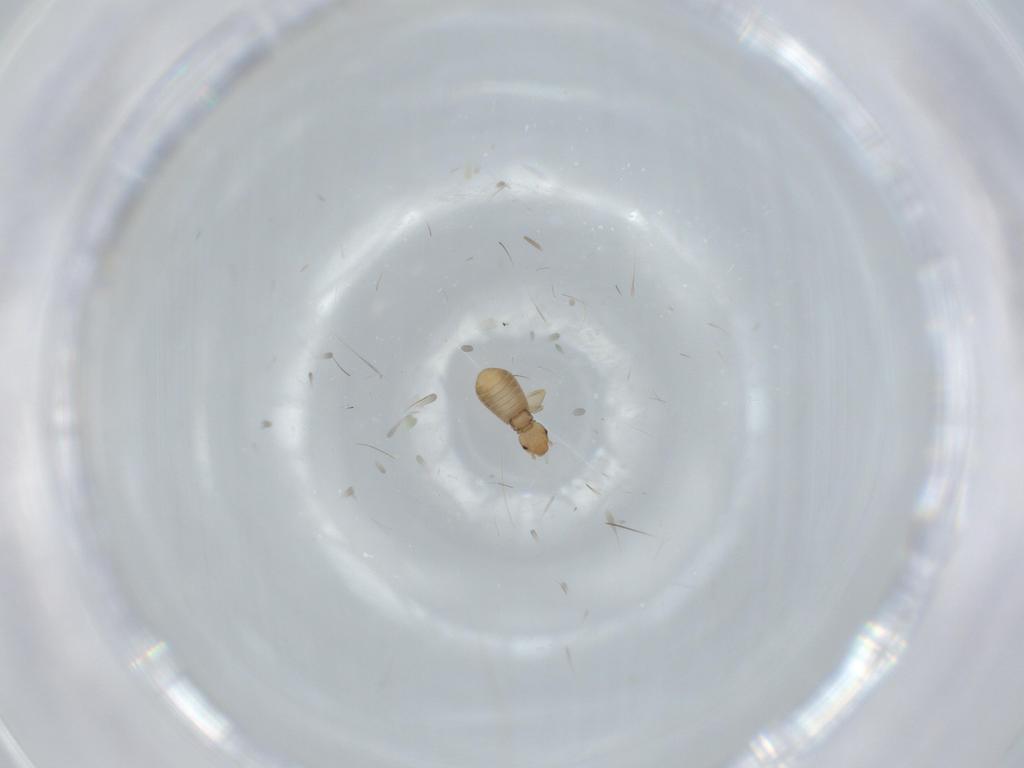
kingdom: Animalia
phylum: Arthropoda
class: Insecta
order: Psocodea
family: Liposcelididae
